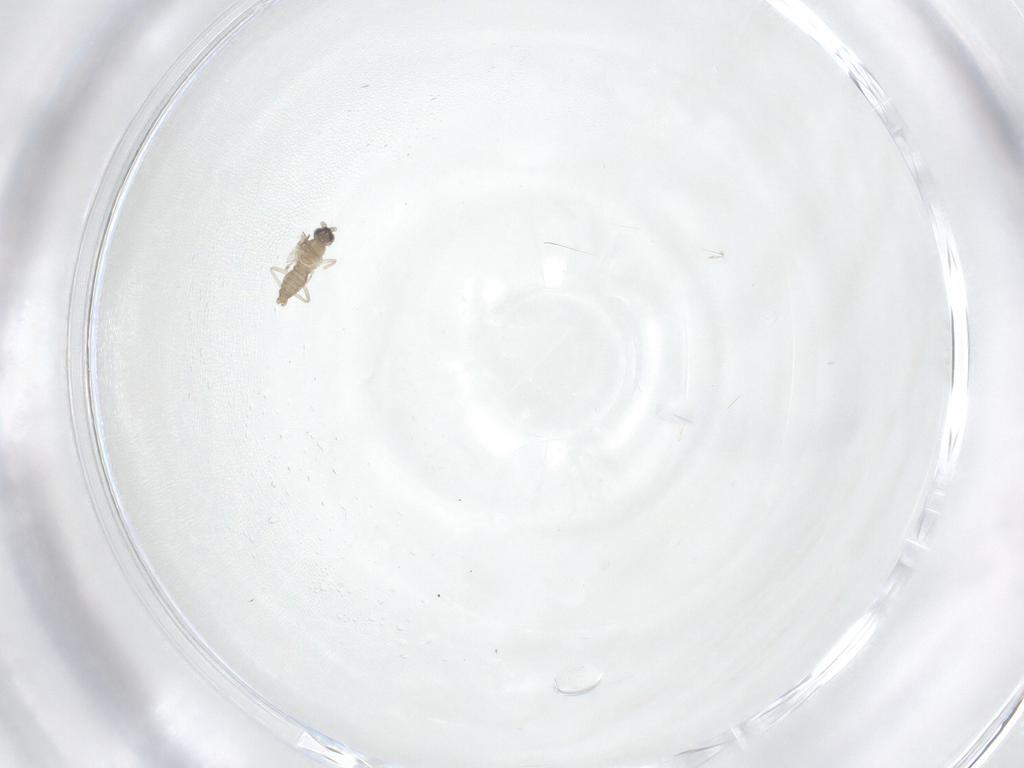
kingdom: Animalia
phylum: Arthropoda
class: Insecta
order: Diptera
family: Cecidomyiidae
